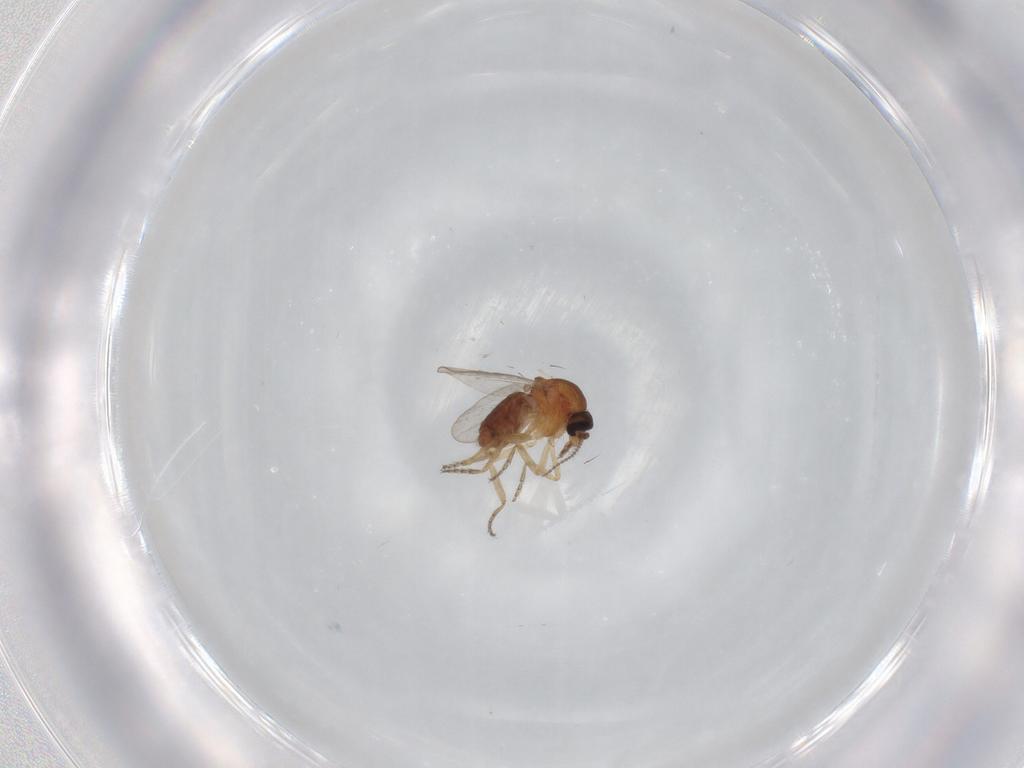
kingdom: Animalia
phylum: Arthropoda
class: Insecta
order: Diptera
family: Ceratopogonidae
